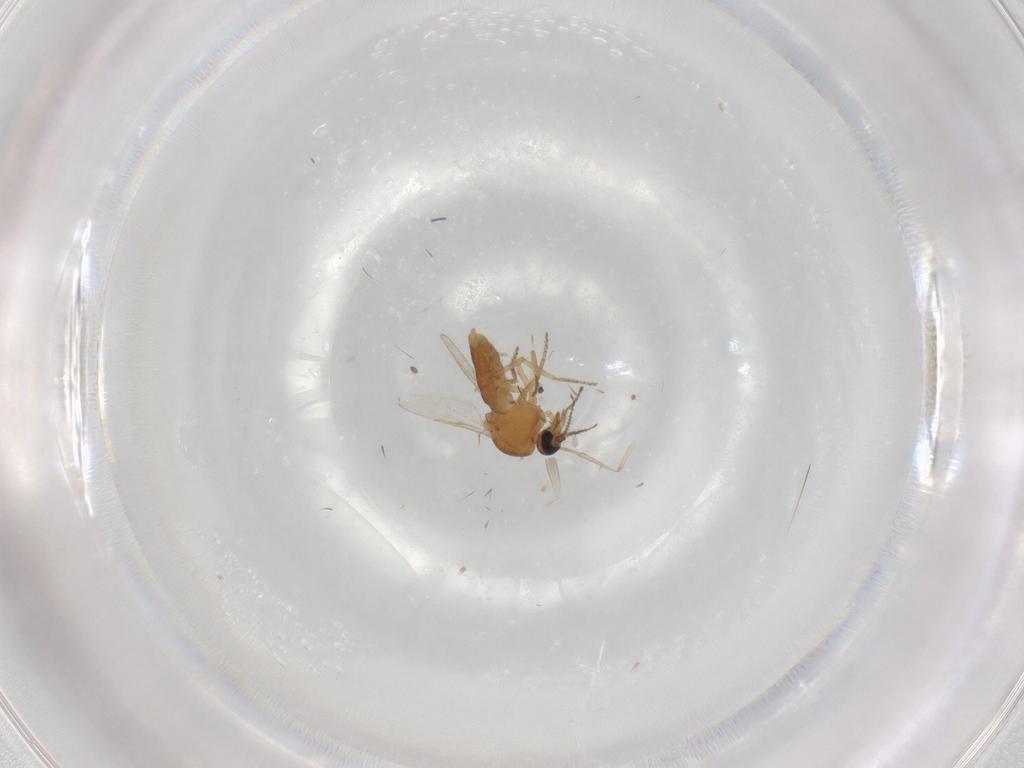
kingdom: Animalia
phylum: Arthropoda
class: Insecta
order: Diptera
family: Ceratopogonidae
